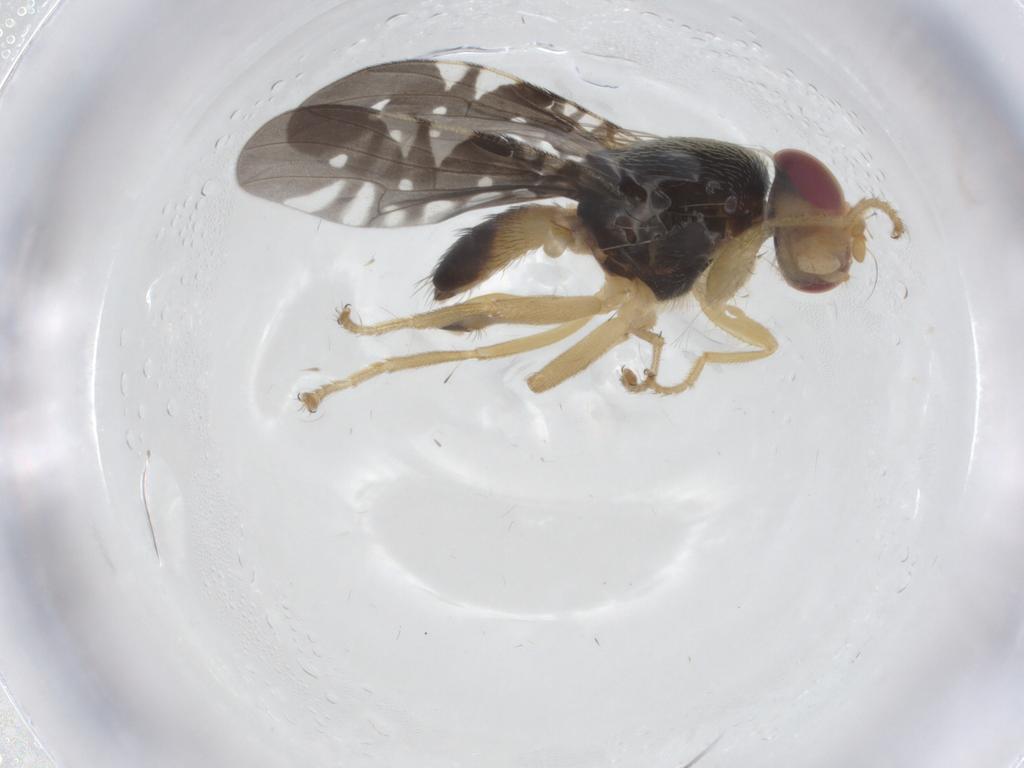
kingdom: Animalia
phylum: Arthropoda
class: Insecta
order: Diptera
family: Tephritidae
